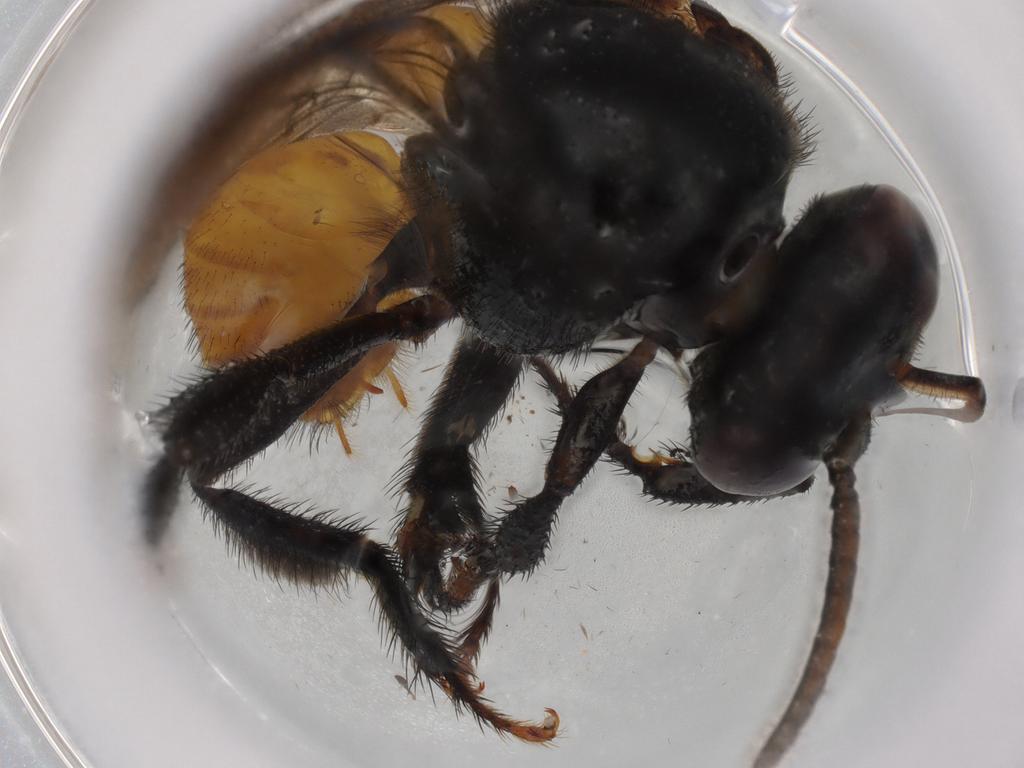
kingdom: Animalia
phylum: Arthropoda
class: Insecta
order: Hymenoptera
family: Apidae
